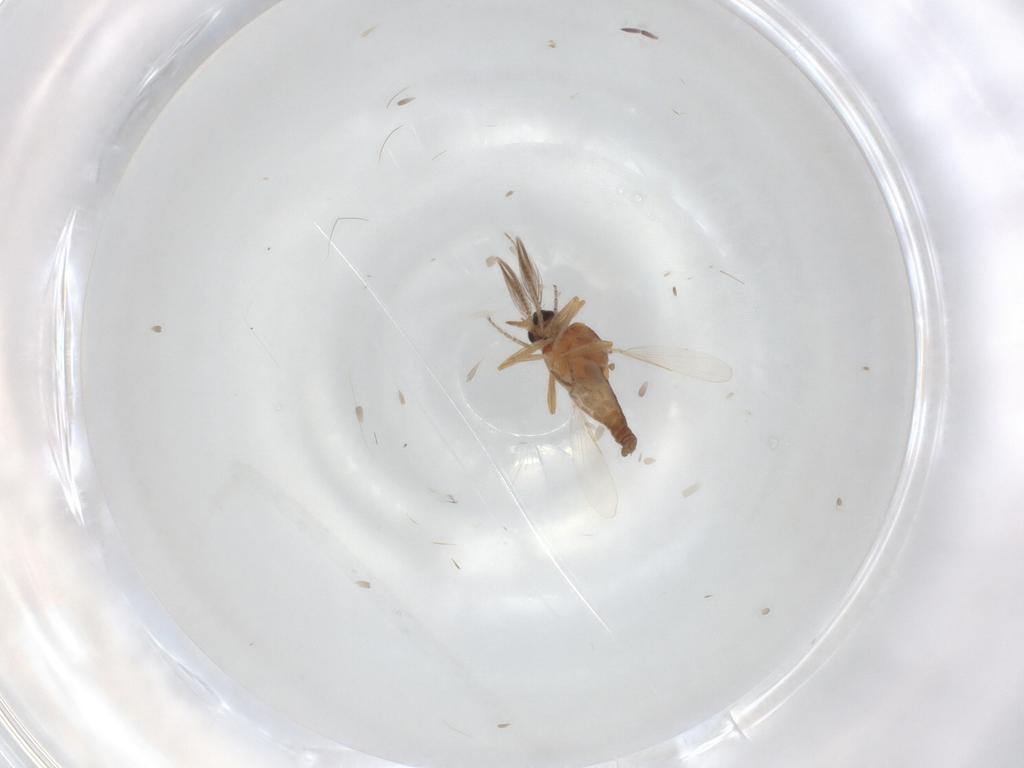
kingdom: Animalia
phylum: Arthropoda
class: Insecta
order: Diptera
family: Ceratopogonidae
